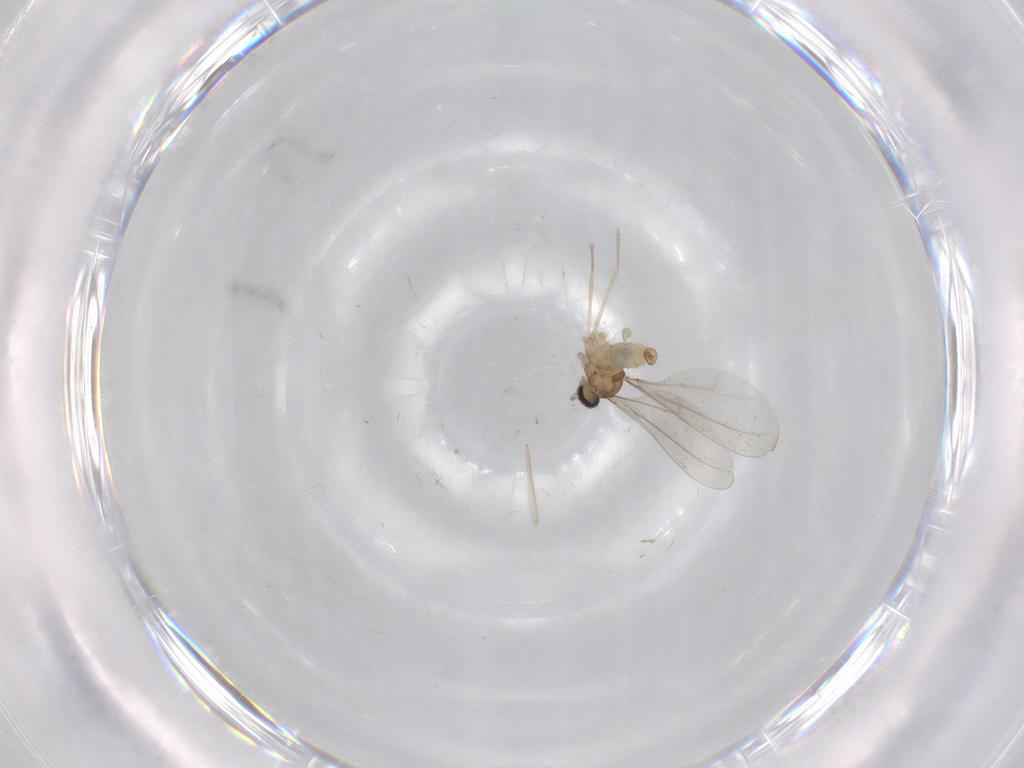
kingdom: Animalia
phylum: Arthropoda
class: Insecta
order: Diptera
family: Cecidomyiidae
